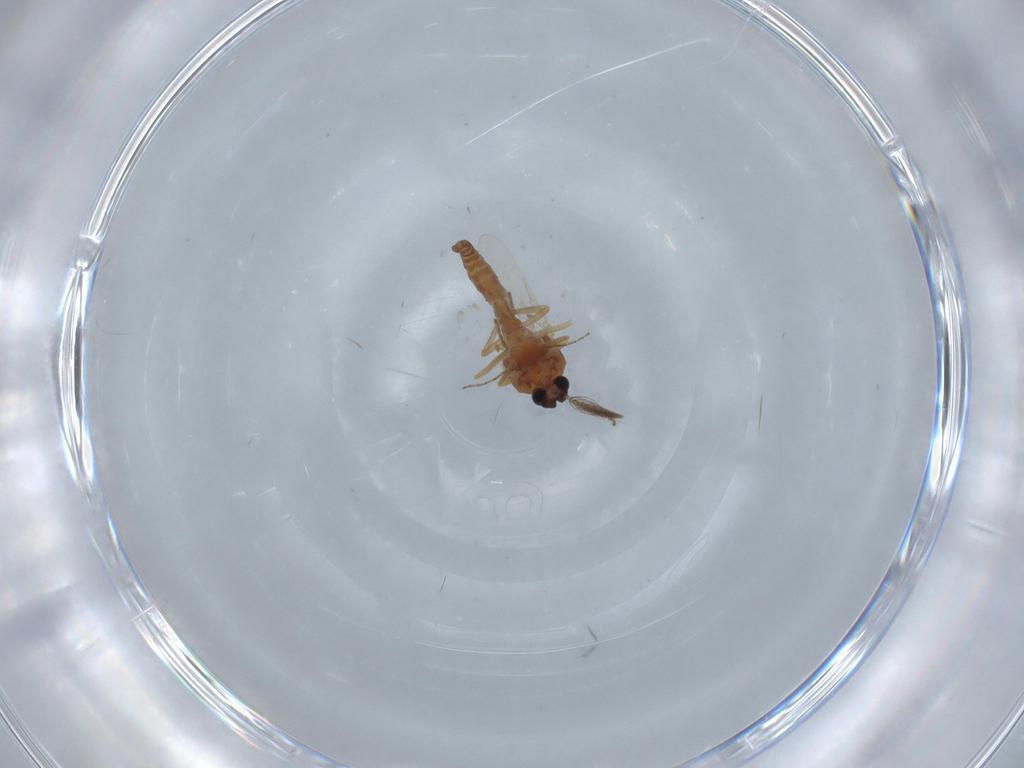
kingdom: Animalia
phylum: Arthropoda
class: Insecta
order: Diptera
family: Ceratopogonidae
